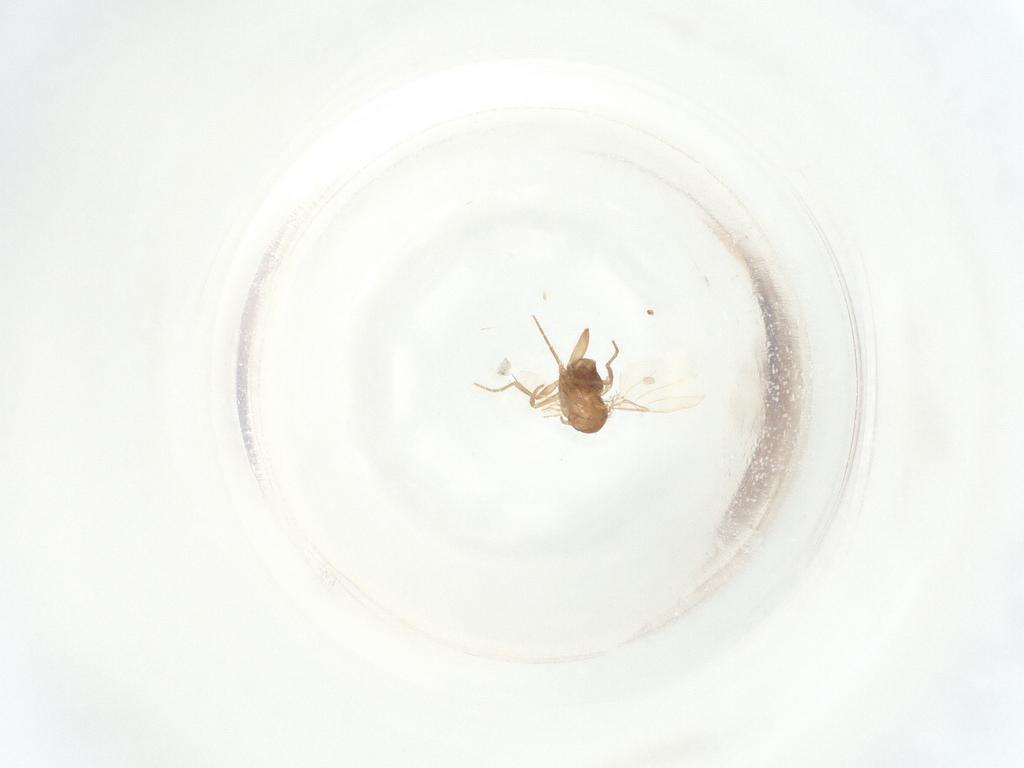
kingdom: Animalia
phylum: Arthropoda
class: Insecta
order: Diptera
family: Phoridae
